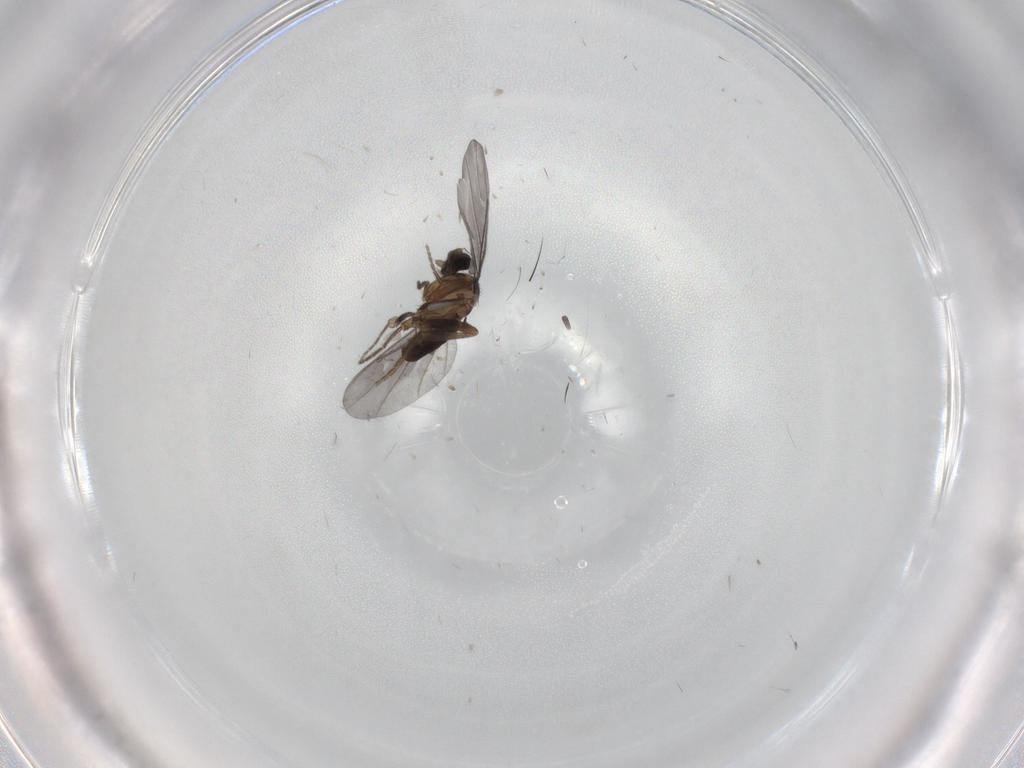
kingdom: Animalia
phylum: Arthropoda
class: Insecta
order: Diptera
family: Phoridae
